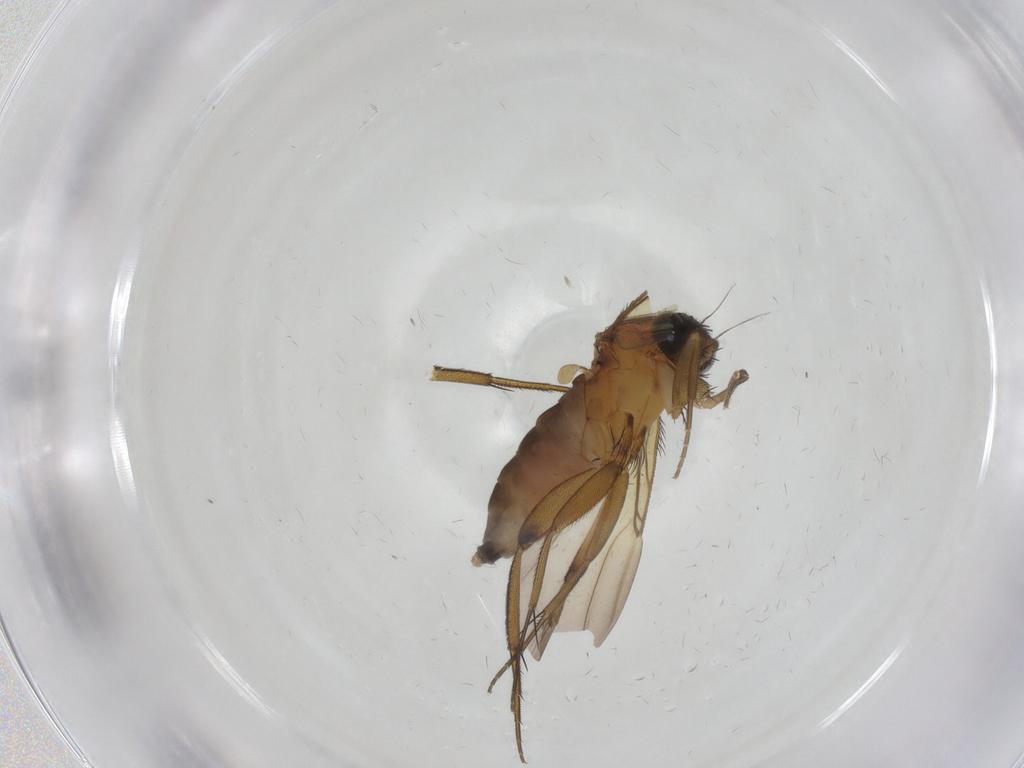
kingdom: Animalia
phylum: Arthropoda
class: Insecta
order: Diptera
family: Phoridae
